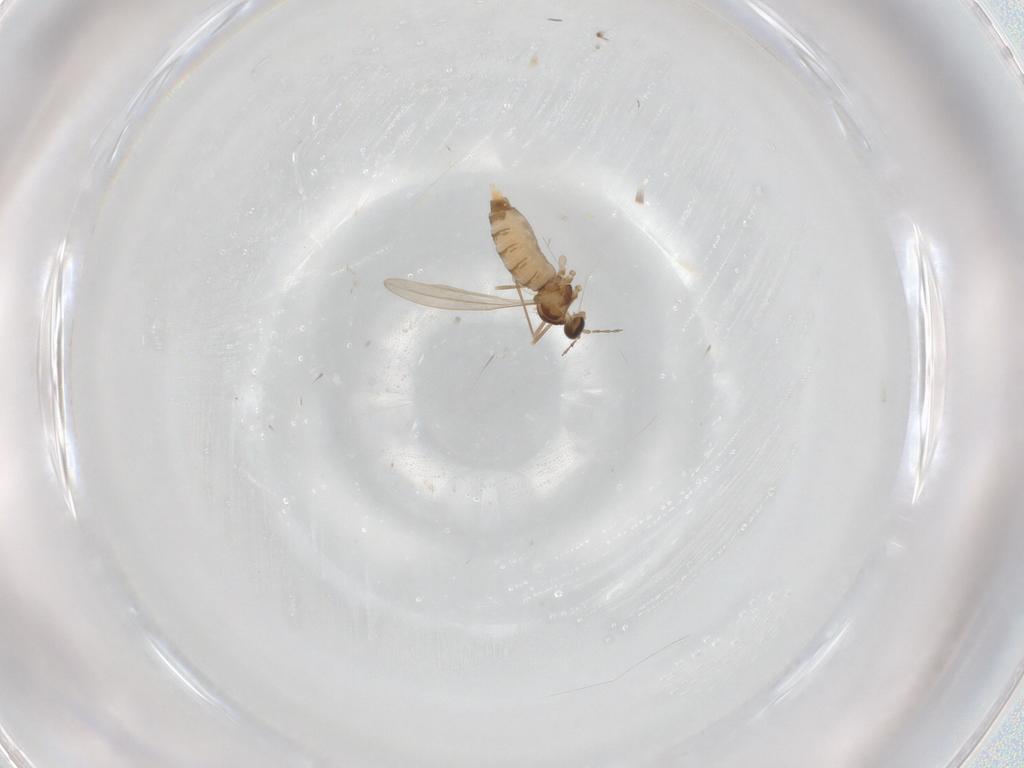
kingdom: Animalia
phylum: Arthropoda
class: Insecta
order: Diptera
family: Cecidomyiidae
